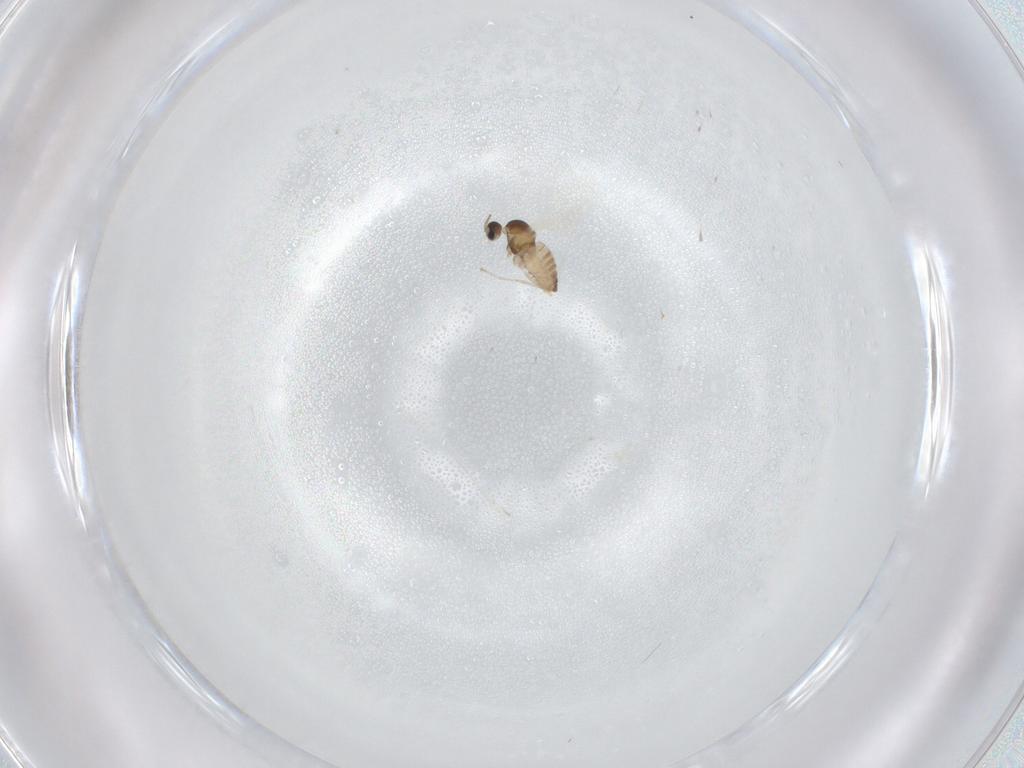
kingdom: Animalia
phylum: Arthropoda
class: Insecta
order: Diptera
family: Cecidomyiidae
